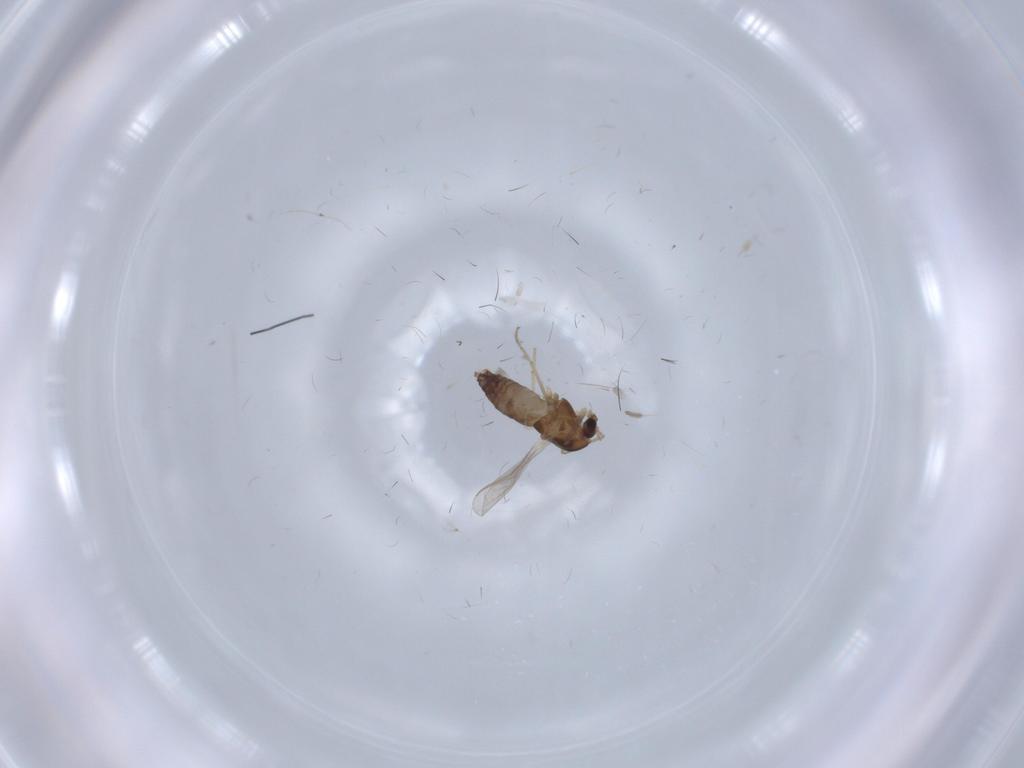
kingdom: Animalia
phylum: Arthropoda
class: Insecta
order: Diptera
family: Chironomidae
